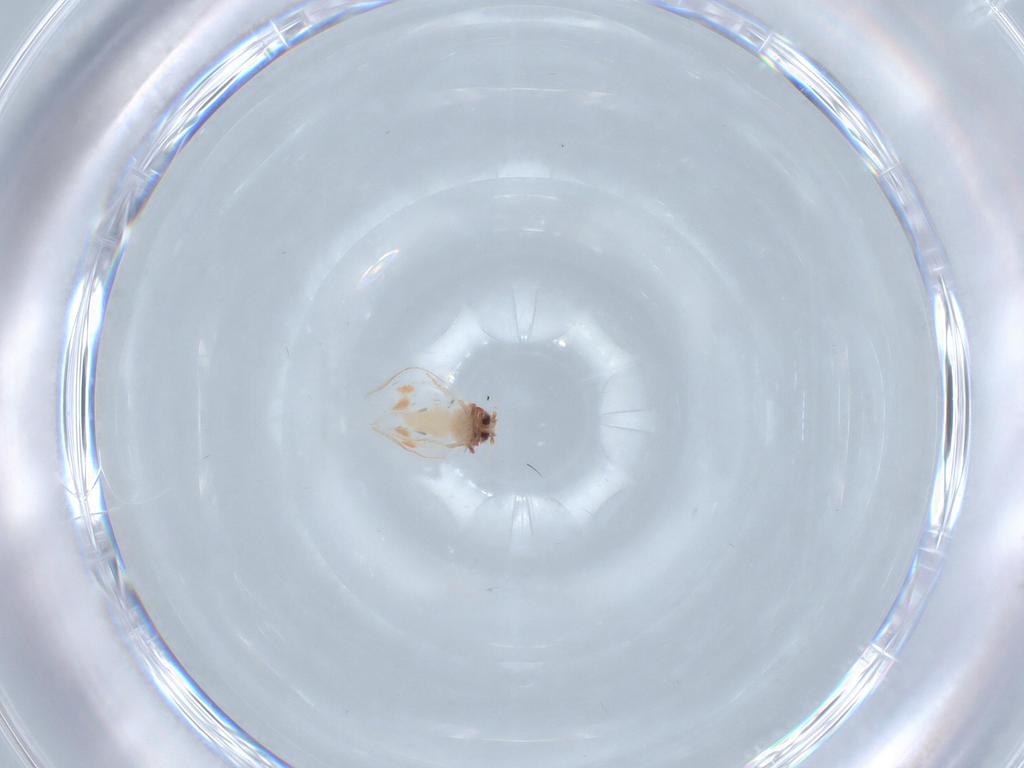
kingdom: Animalia
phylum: Arthropoda
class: Insecta
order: Hemiptera
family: Aleyrodidae
